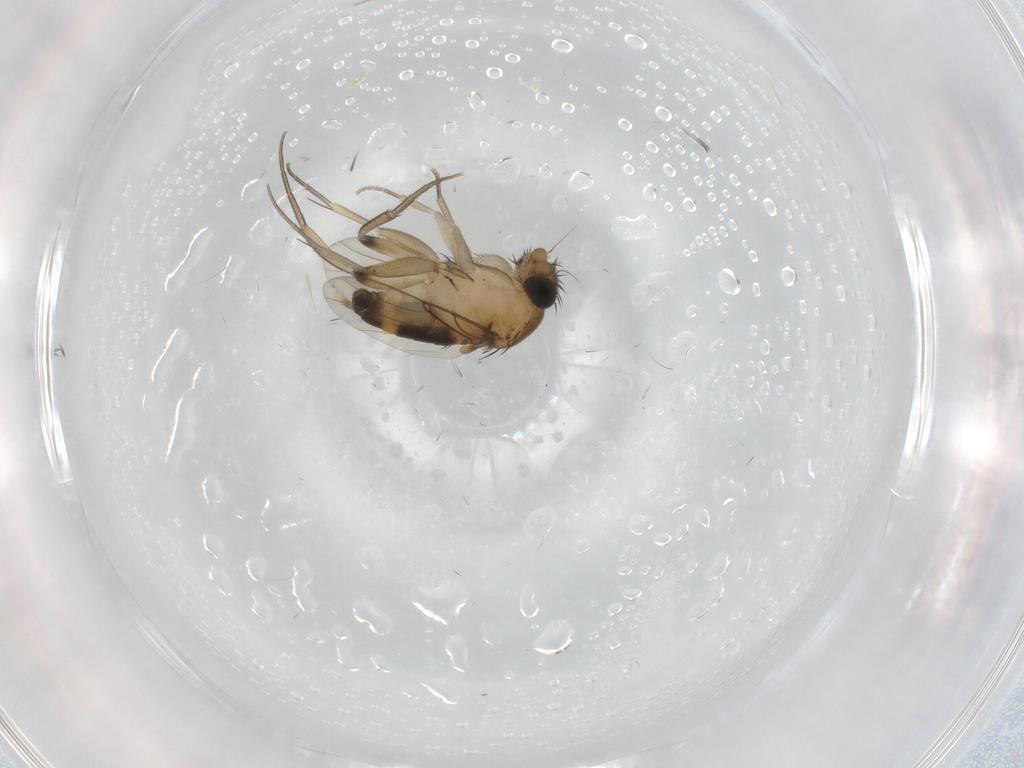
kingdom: Animalia
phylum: Arthropoda
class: Insecta
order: Diptera
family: Phoridae
